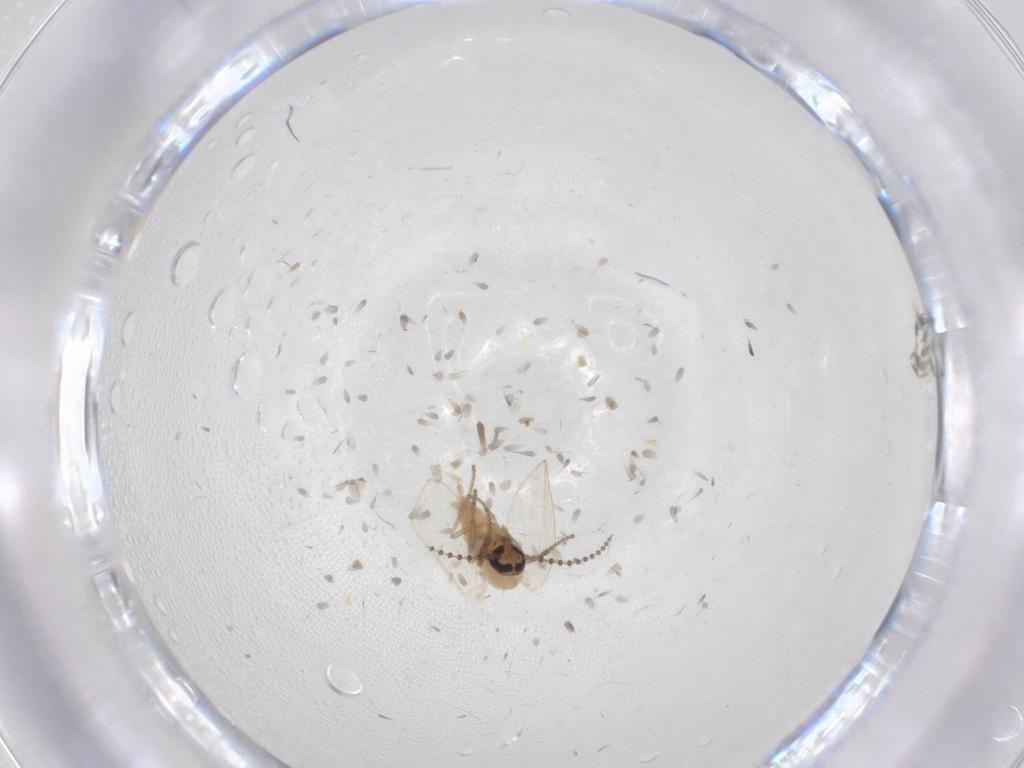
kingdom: Animalia
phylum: Arthropoda
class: Insecta
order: Diptera
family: Psychodidae
